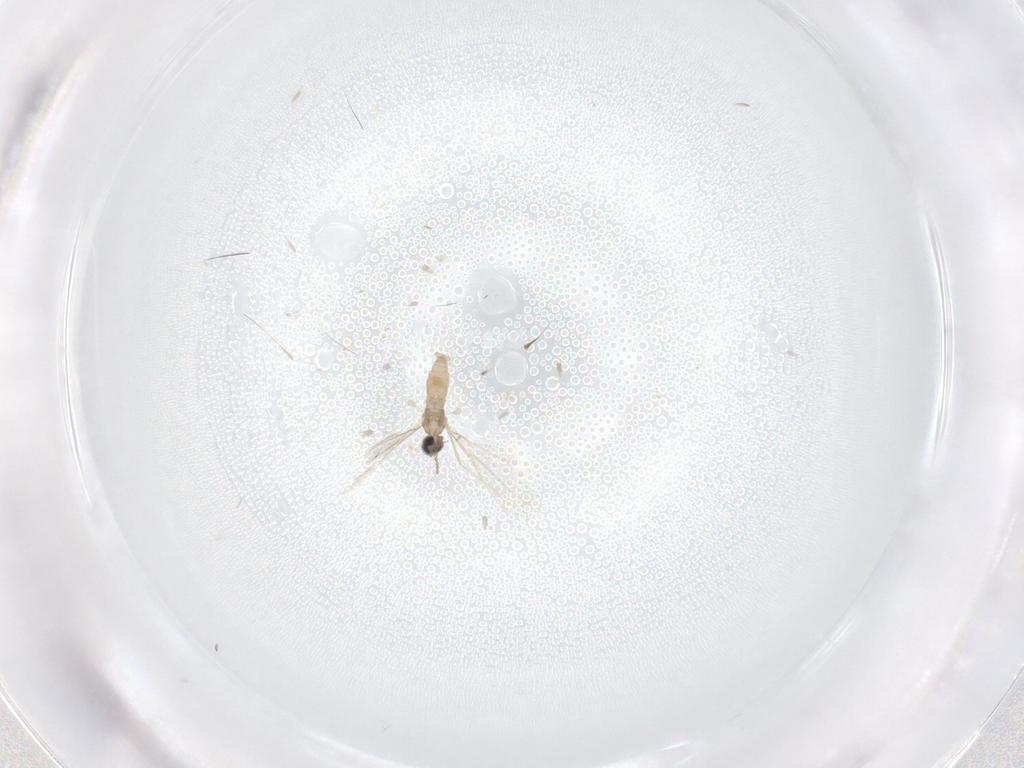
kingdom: Animalia
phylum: Arthropoda
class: Insecta
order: Diptera
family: Cecidomyiidae
